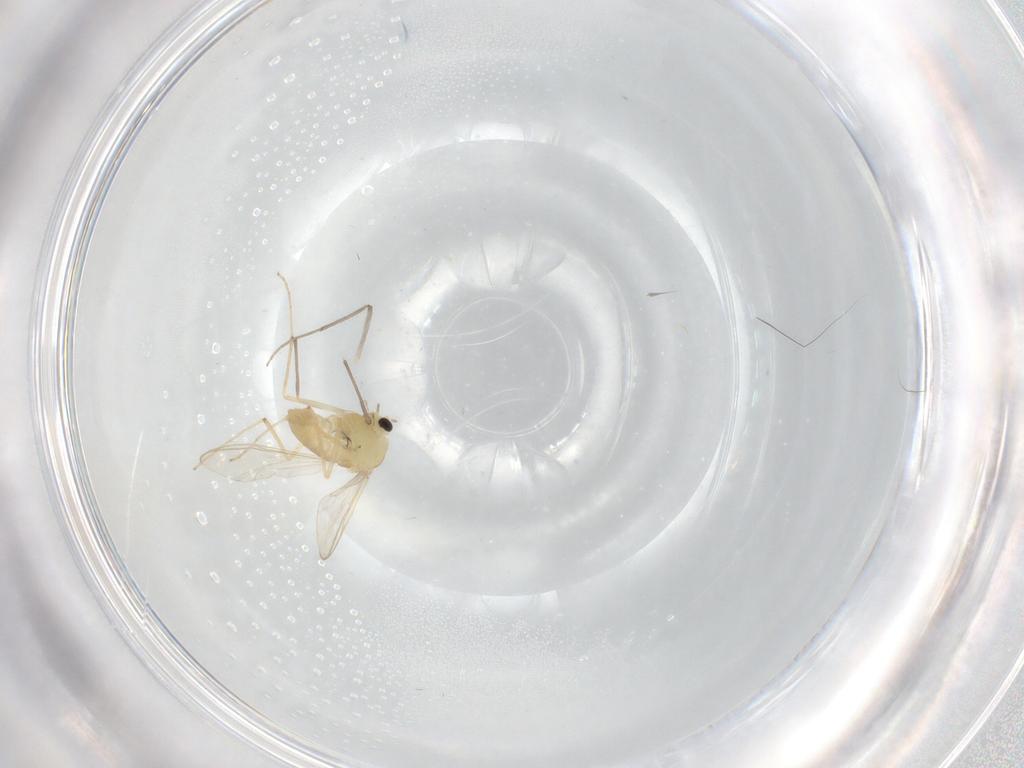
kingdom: Animalia
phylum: Arthropoda
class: Insecta
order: Diptera
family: Chironomidae
